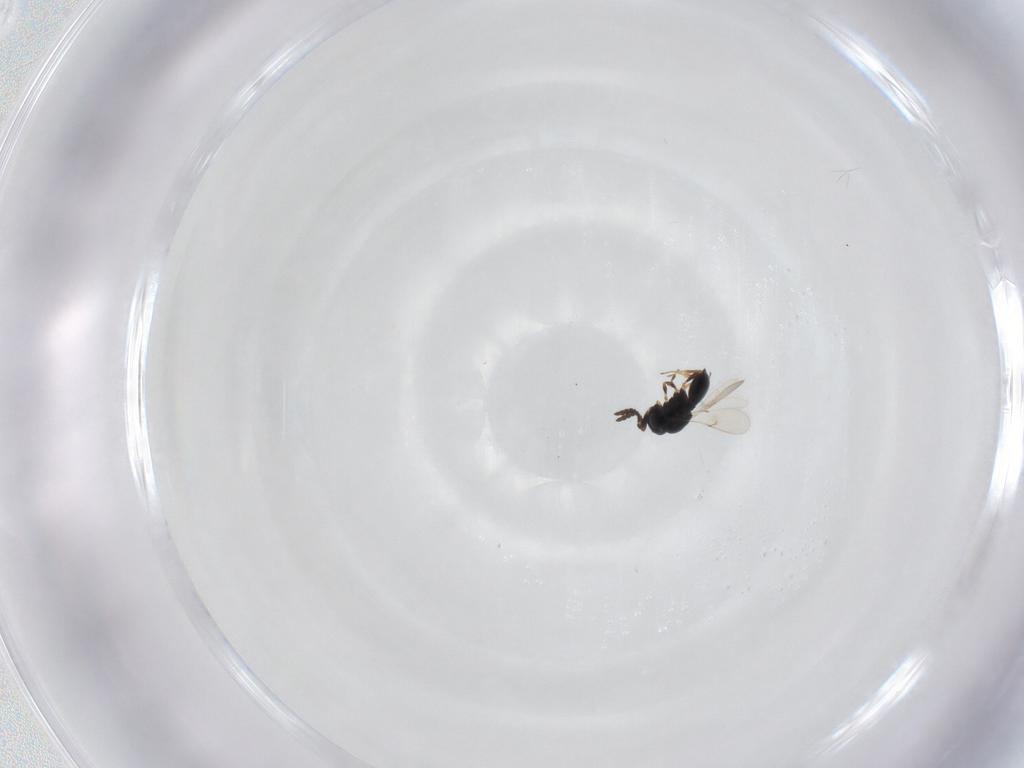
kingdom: Animalia
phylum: Arthropoda
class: Insecta
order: Hymenoptera
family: Scelionidae
